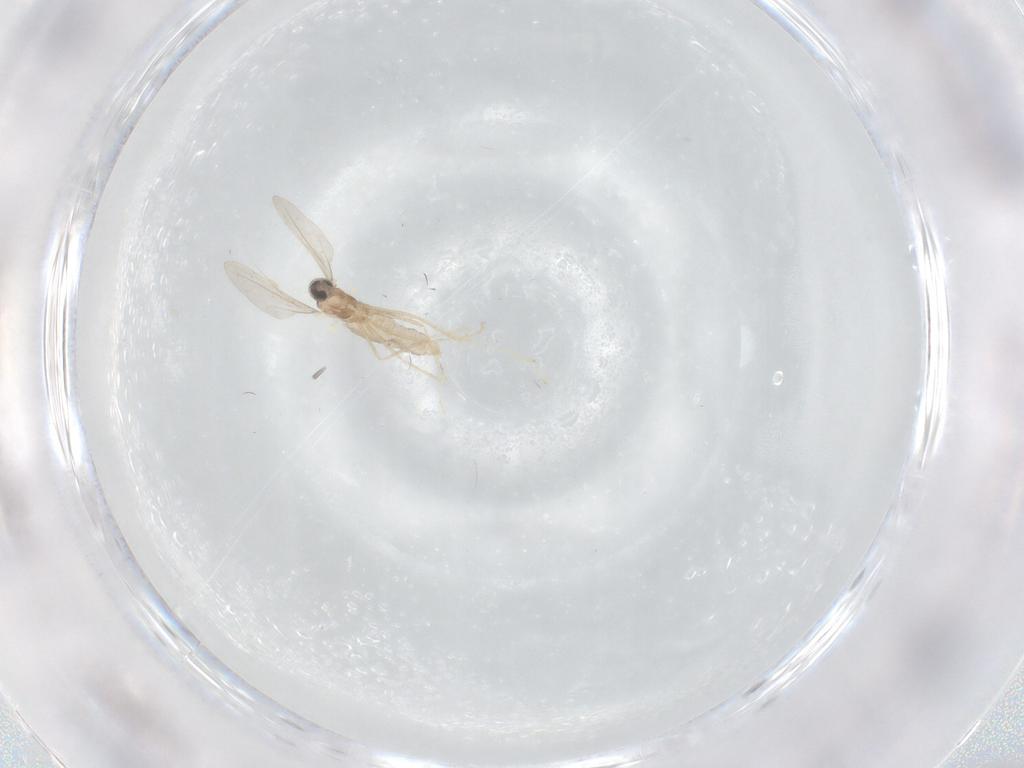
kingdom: Animalia
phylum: Arthropoda
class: Insecta
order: Diptera
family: Cecidomyiidae
